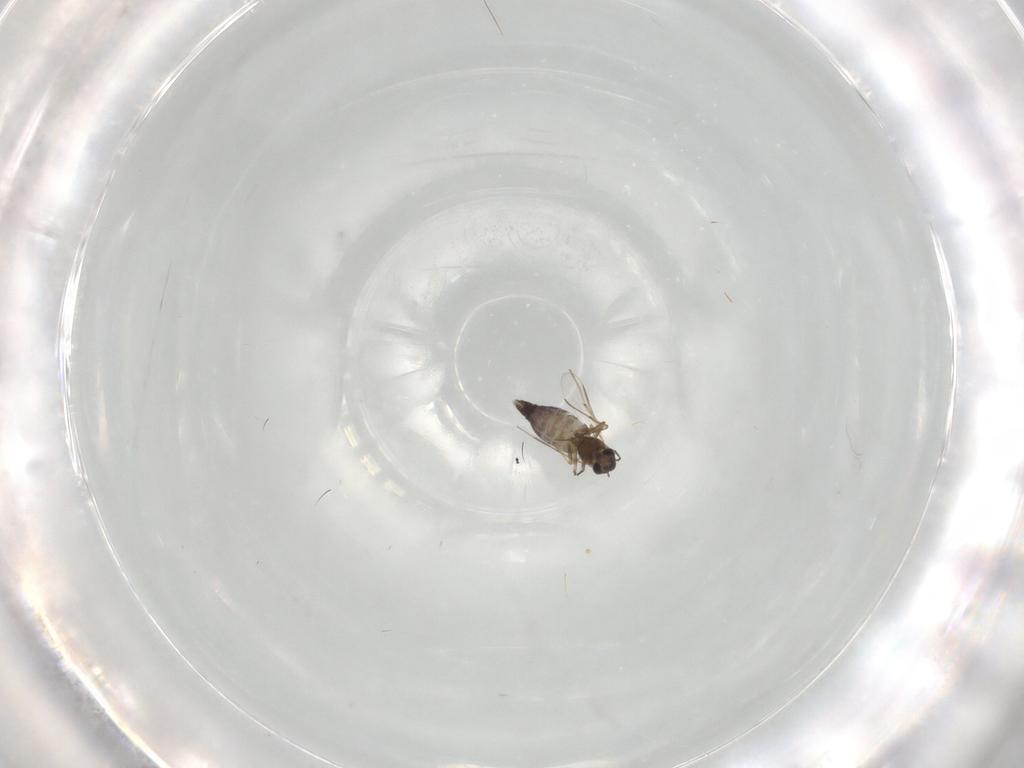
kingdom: Animalia
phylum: Arthropoda
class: Insecta
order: Diptera
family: Chironomidae
